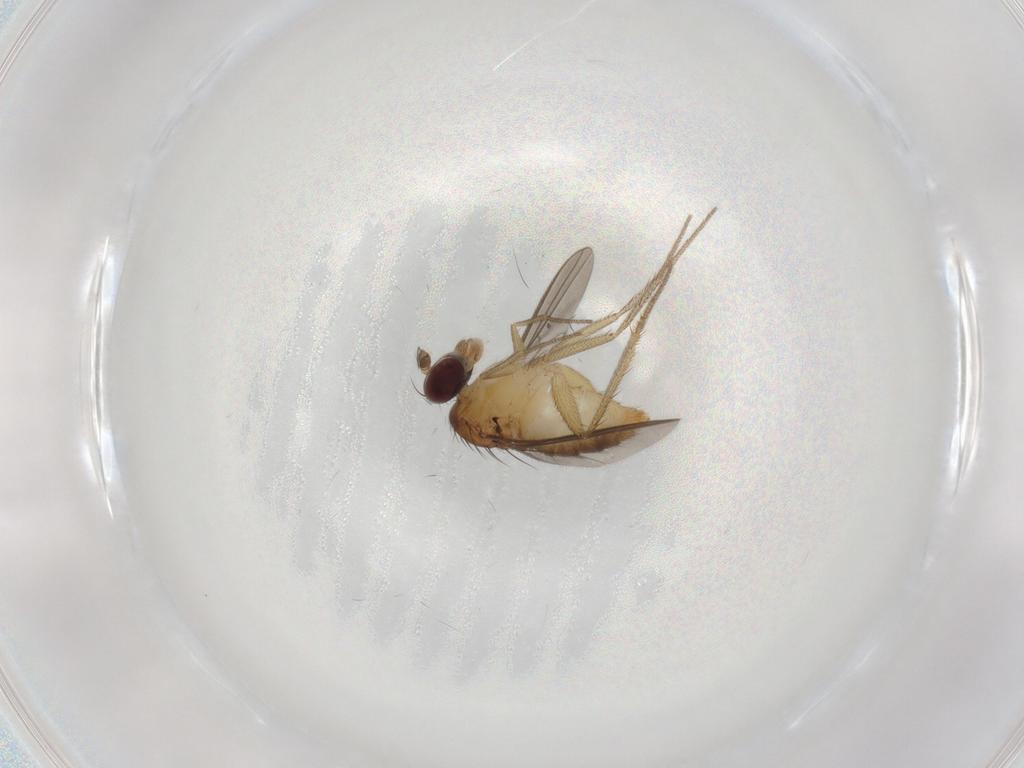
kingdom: Animalia
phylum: Arthropoda
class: Insecta
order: Diptera
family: Dolichopodidae
